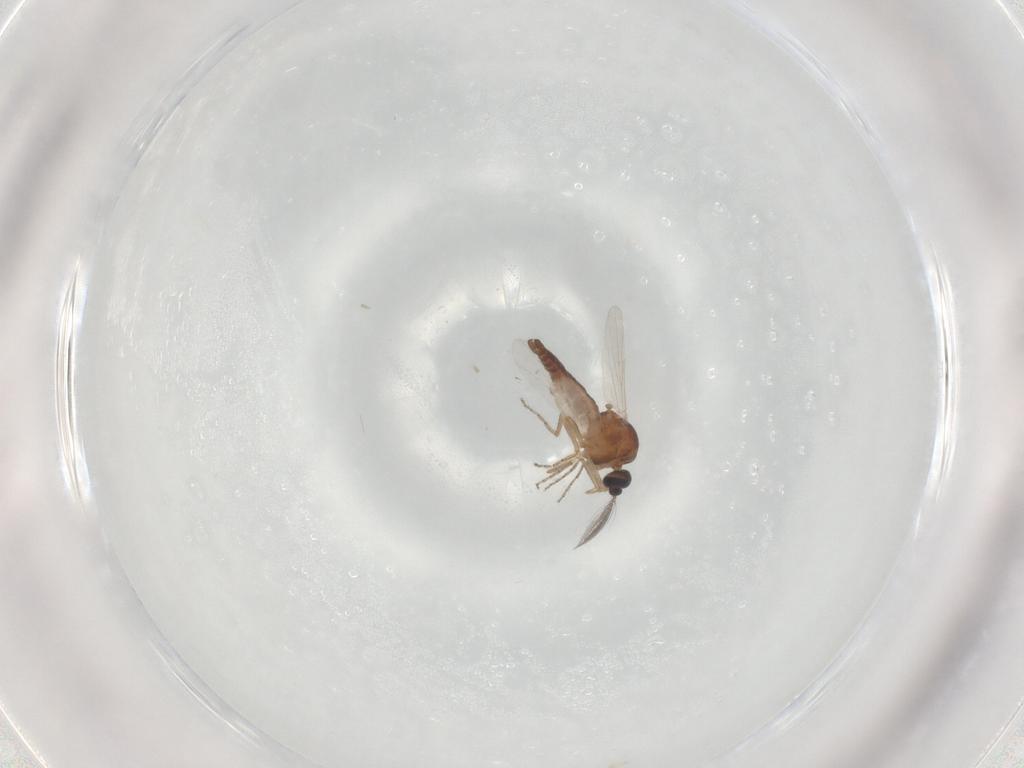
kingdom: Animalia
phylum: Arthropoda
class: Insecta
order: Diptera
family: Ceratopogonidae
